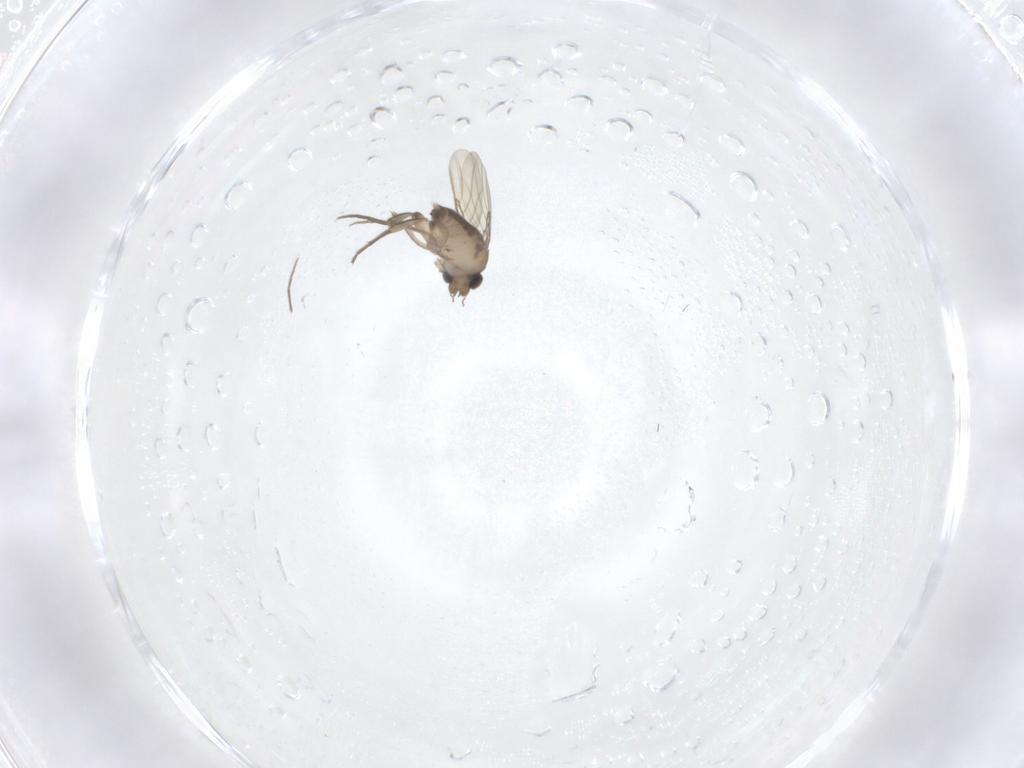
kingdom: Animalia
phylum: Arthropoda
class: Insecta
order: Diptera
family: Phoridae
